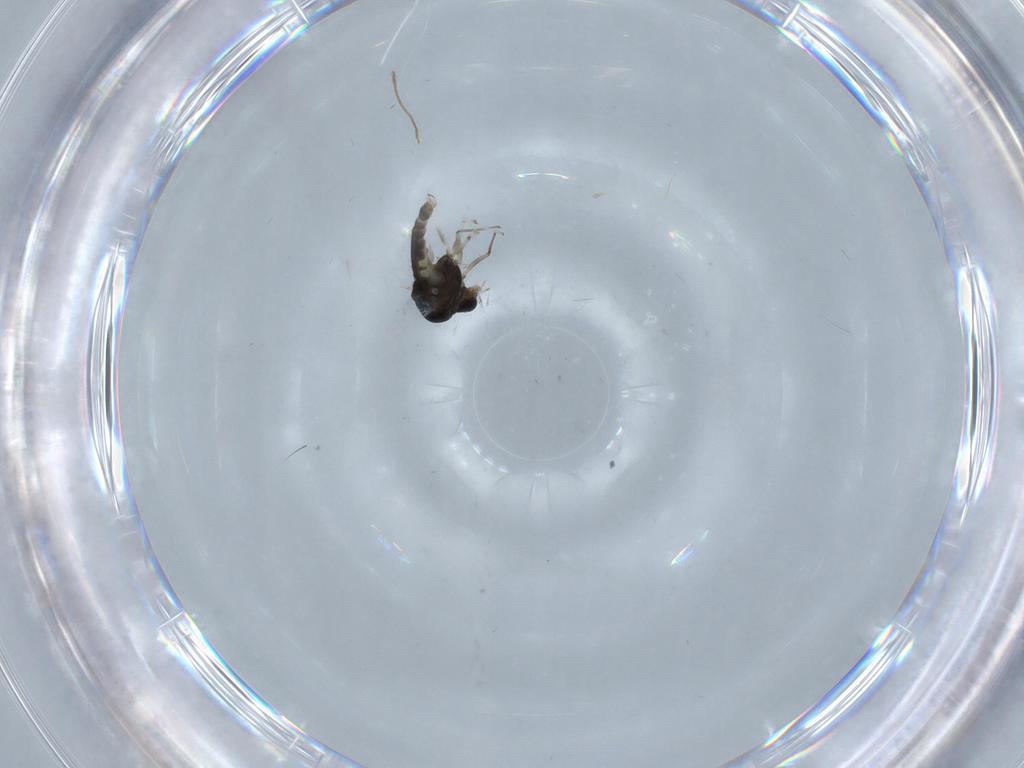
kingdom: Animalia
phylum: Arthropoda
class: Insecta
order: Diptera
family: Chironomidae
